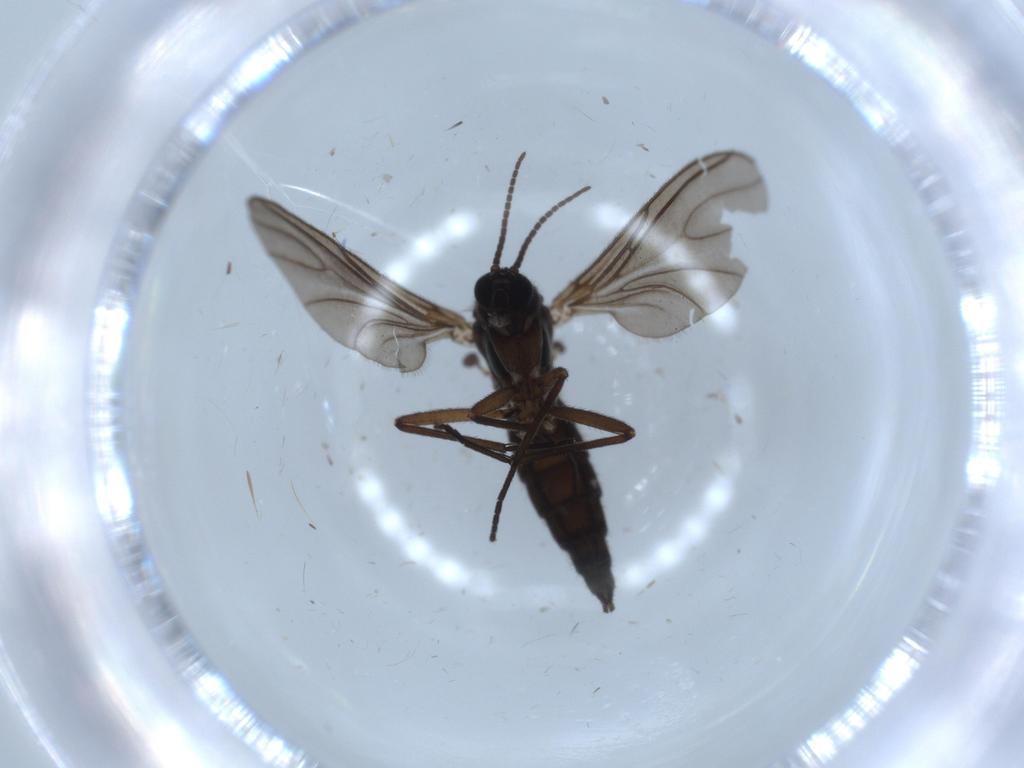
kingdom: Animalia
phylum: Arthropoda
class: Insecta
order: Diptera
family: Sciaridae
